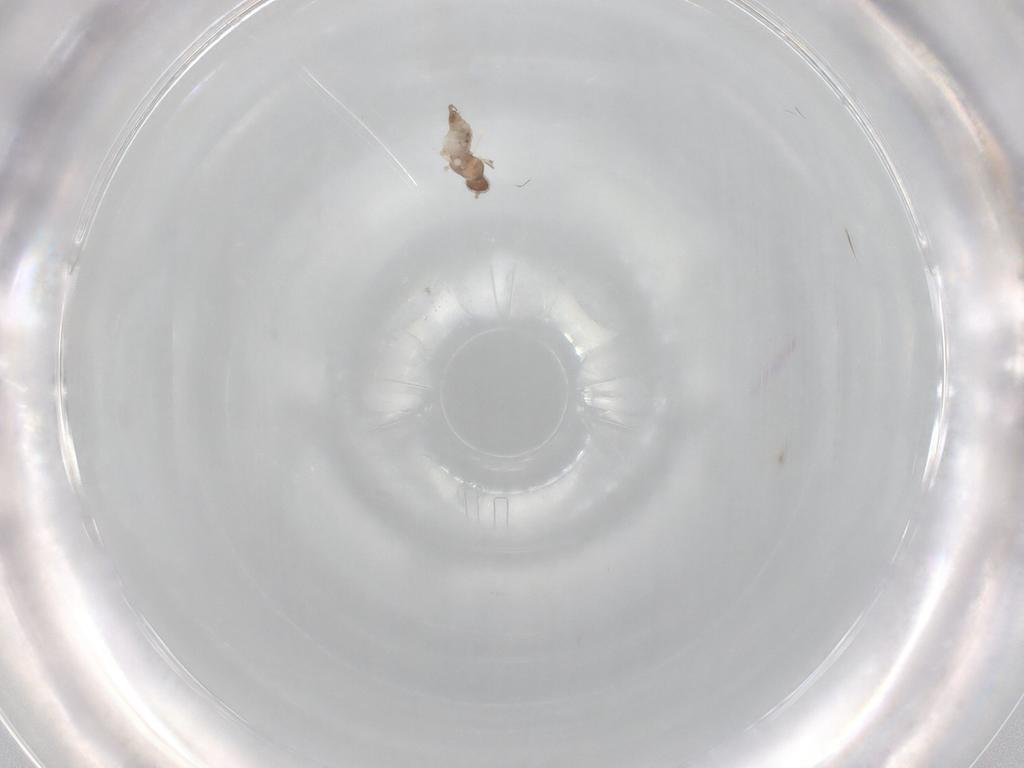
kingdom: Animalia
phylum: Arthropoda
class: Insecta
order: Diptera
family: Cecidomyiidae
